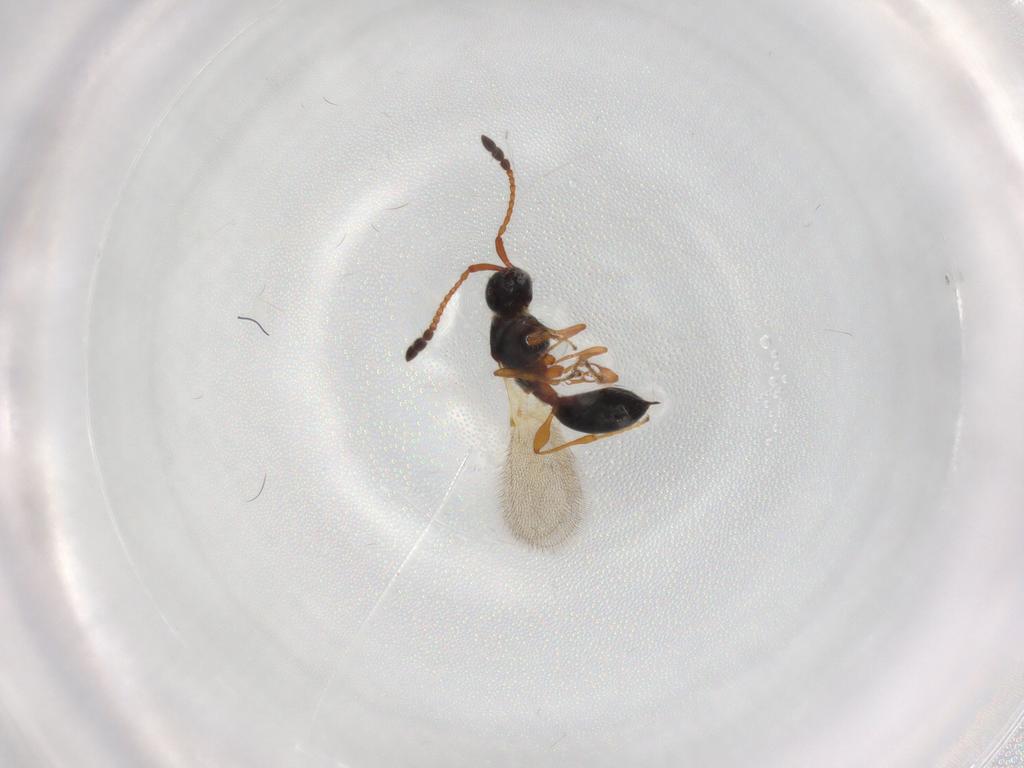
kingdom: Animalia
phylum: Arthropoda
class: Insecta
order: Hymenoptera
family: Diapriidae
